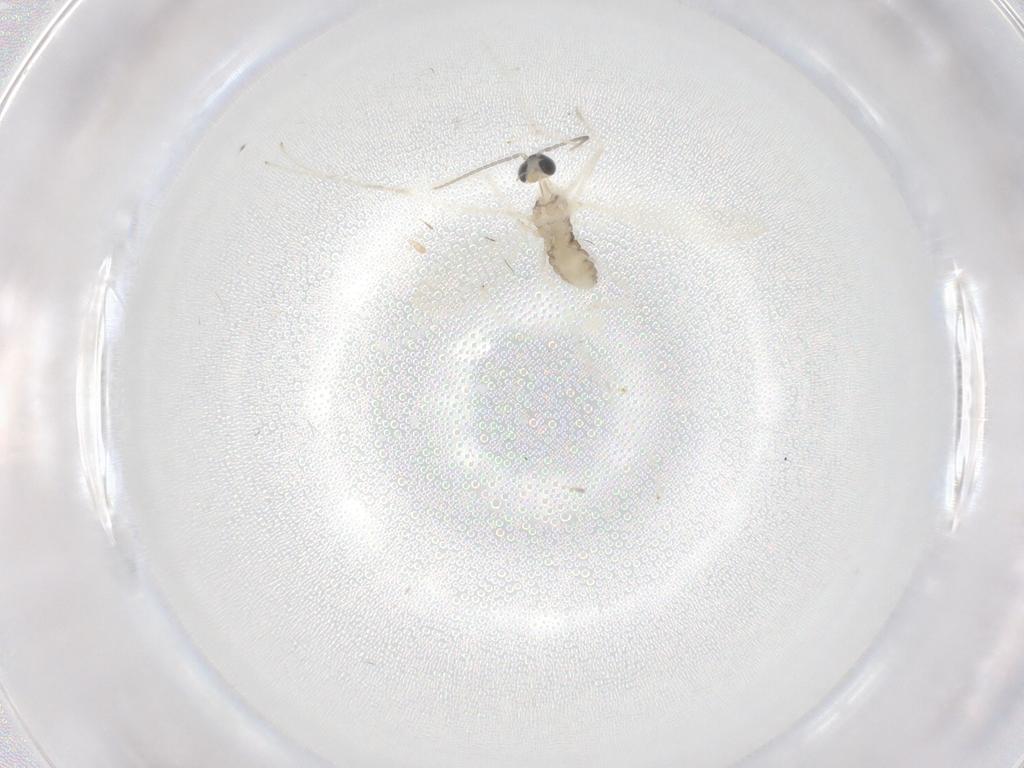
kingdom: Animalia
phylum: Arthropoda
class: Insecta
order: Diptera
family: Cecidomyiidae
